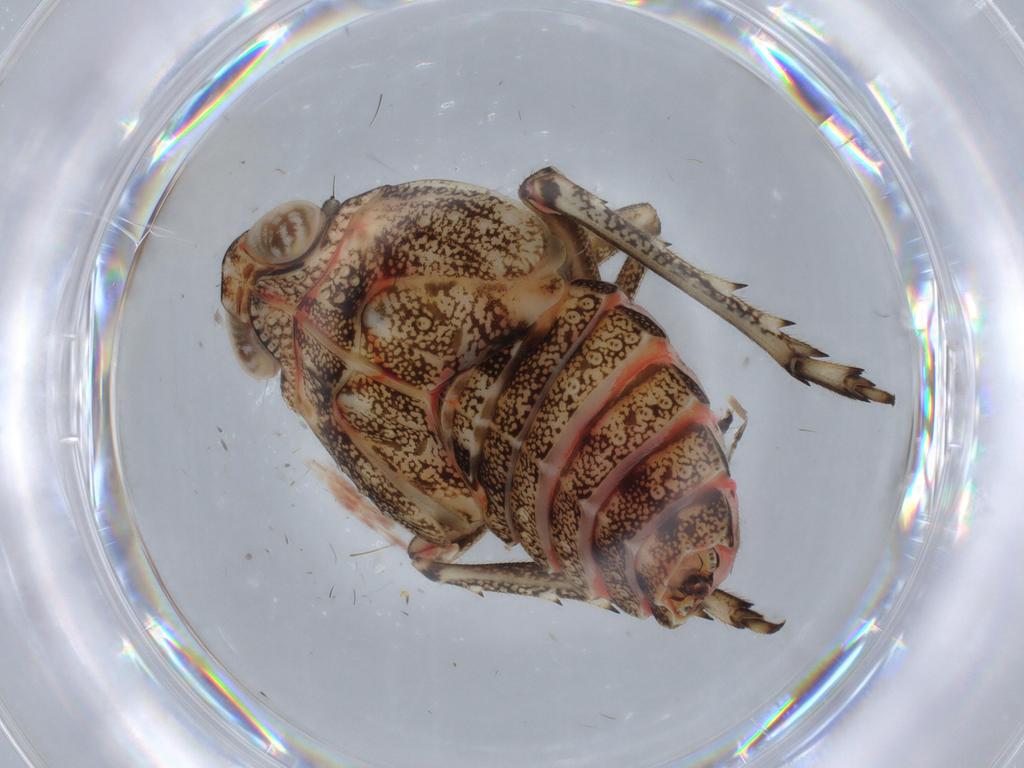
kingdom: Animalia
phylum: Arthropoda
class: Insecta
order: Hemiptera
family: Issidae
